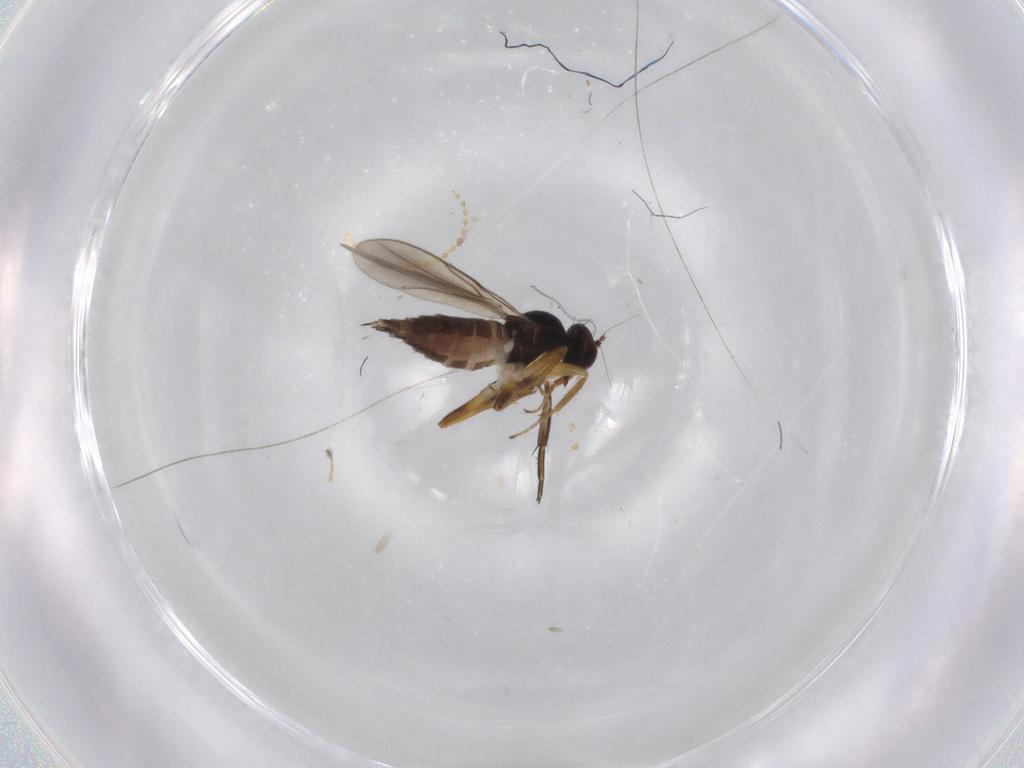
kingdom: Animalia
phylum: Arthropoda
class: Insecta
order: Diptera
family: Hybotidae
